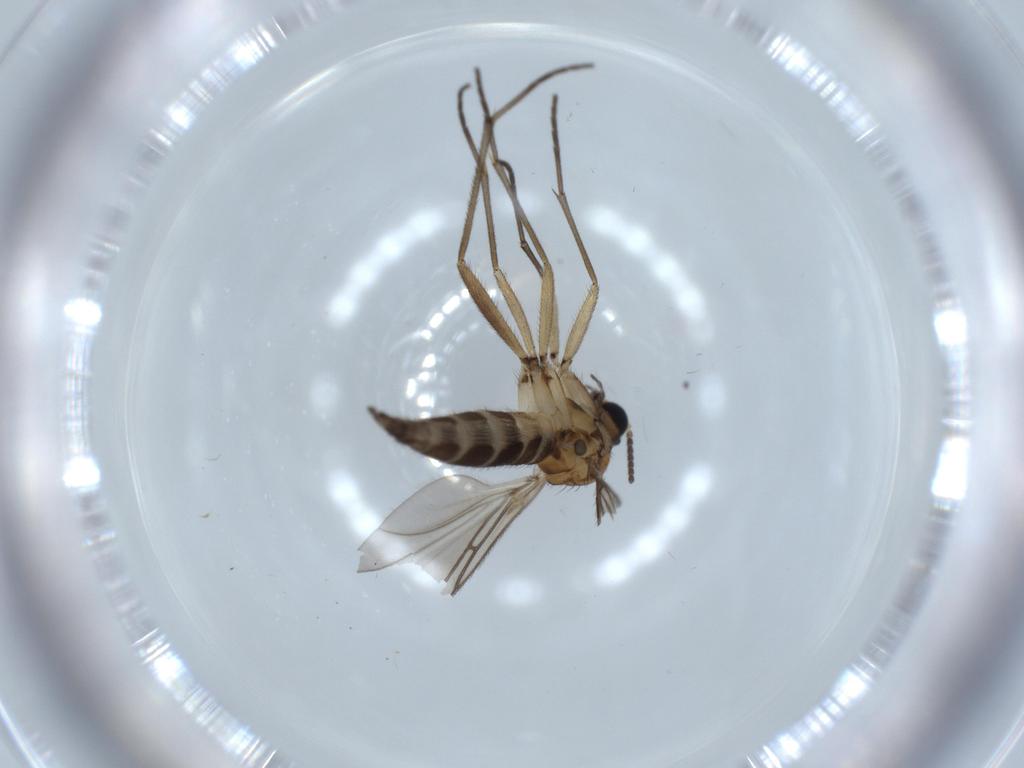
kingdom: Animalia
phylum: Arthropoda
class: Insecta
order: Diptera
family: Sciaridae
